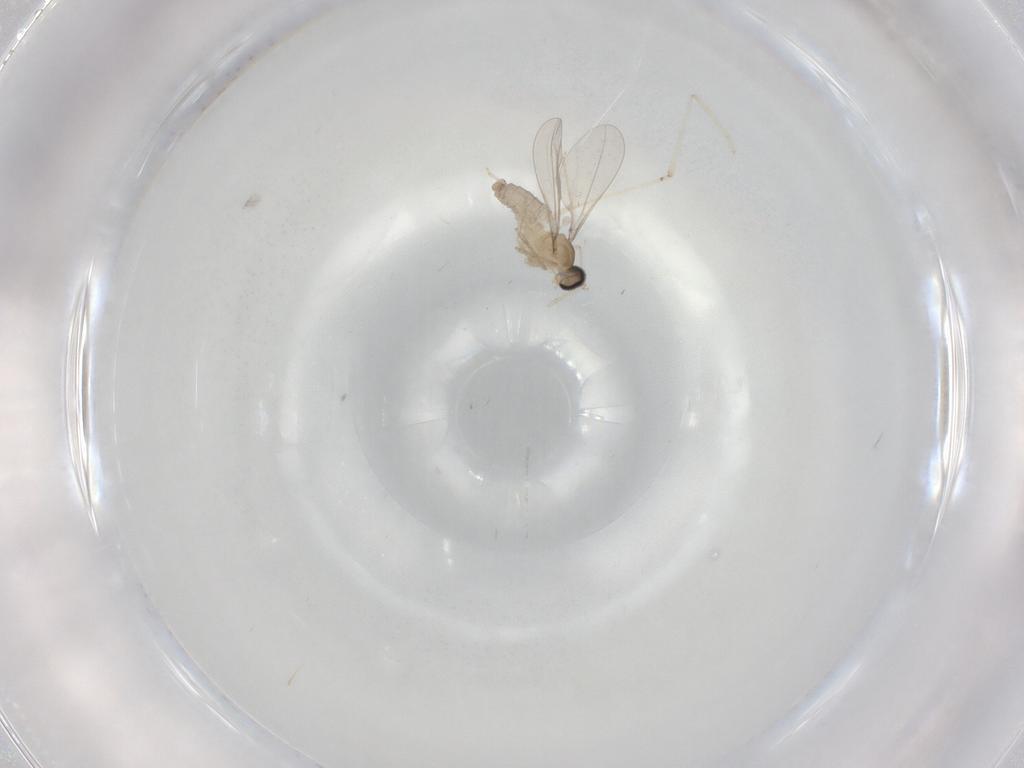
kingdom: Animalia
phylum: Arthropoda
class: Insecta
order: Diptera
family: Cecidomyiidae
